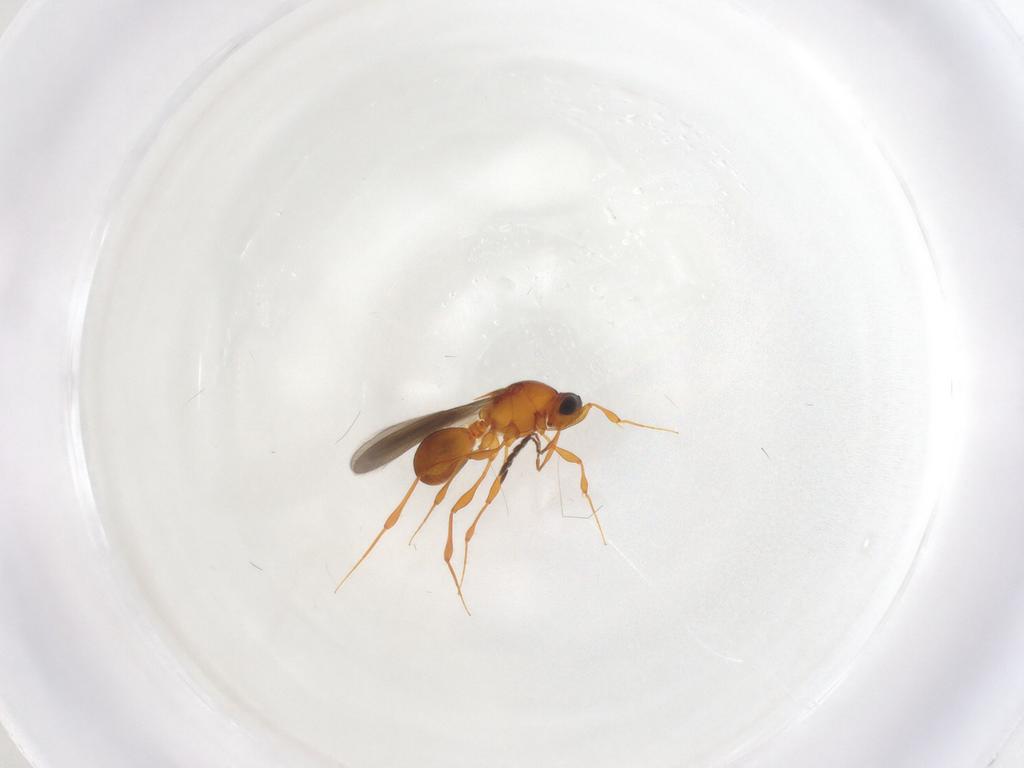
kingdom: Animalia
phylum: Arthropoda
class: Insecta
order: Hymenoptera
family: Platygastridae
